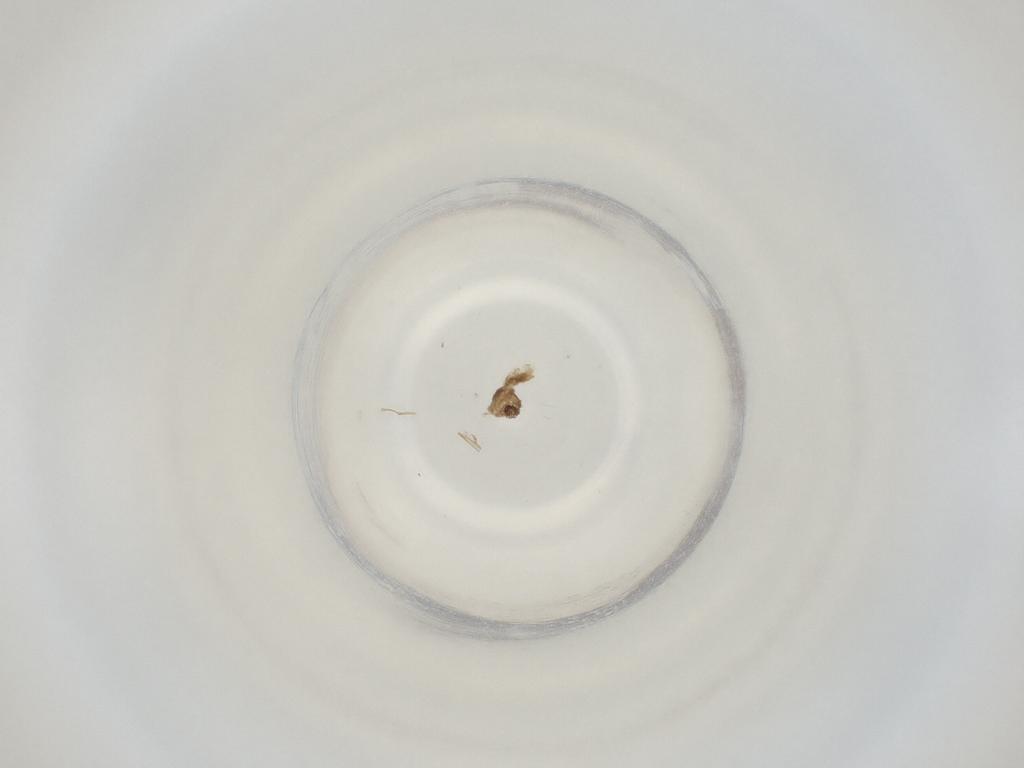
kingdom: Animalia
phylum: Arthropoda
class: Insecta
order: Diptera
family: Cecidomyiidae
